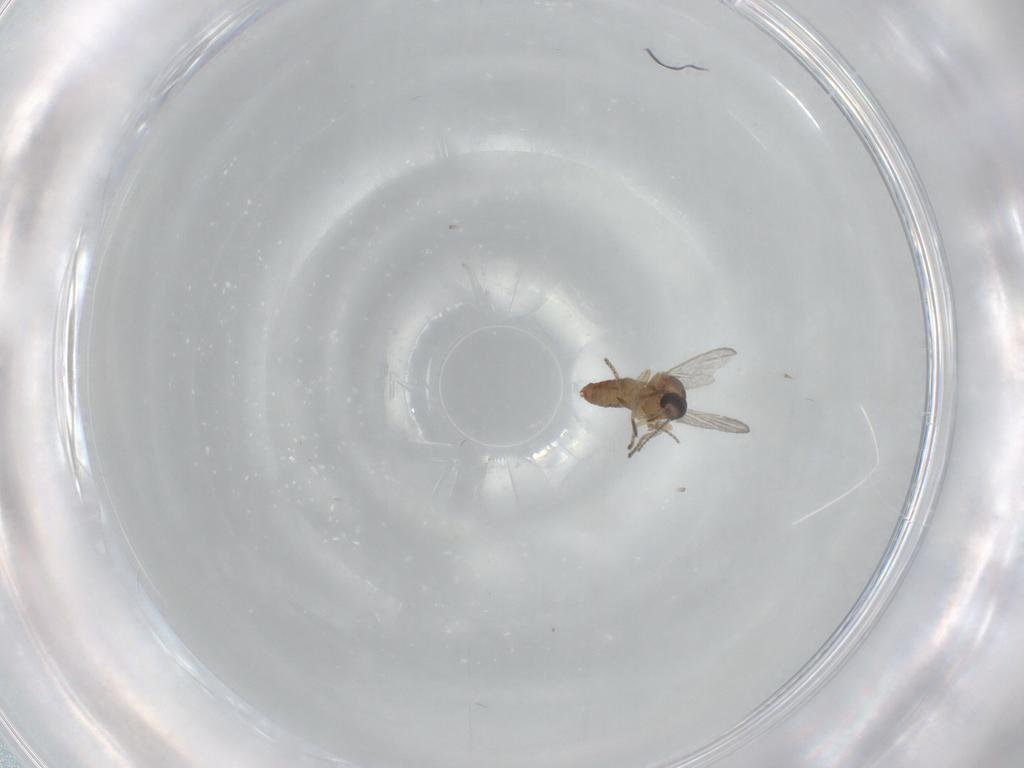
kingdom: Animalia
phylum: Arthropoda
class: Insecta
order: Diptera
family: Ceratopogonidae
